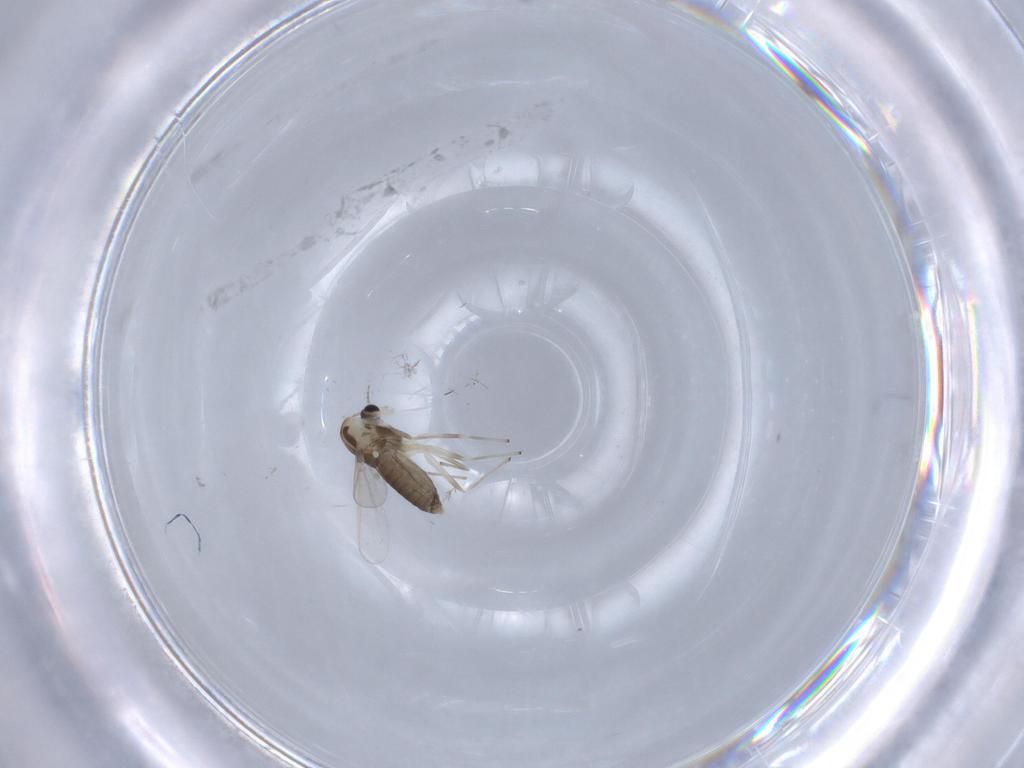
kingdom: Animalia
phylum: Arthropoda
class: Insecta
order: Diptera
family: Chironomidae
